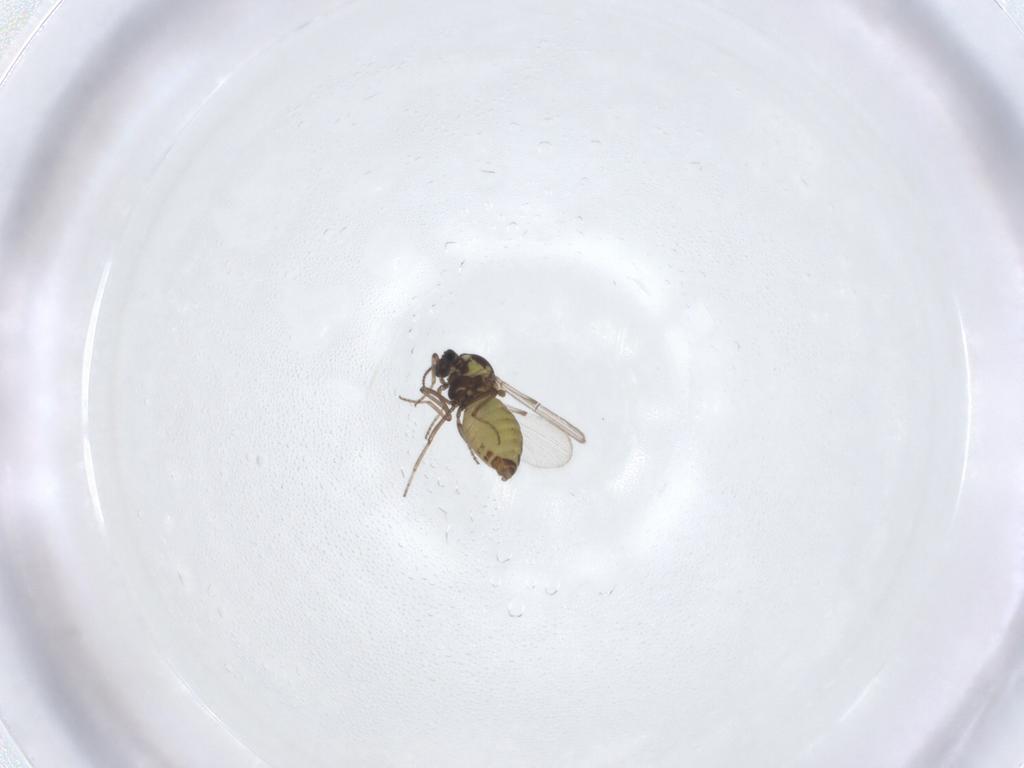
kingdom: Animalia
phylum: Arthropoda
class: Insecta
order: Diptera
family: Ceratopogonidae
